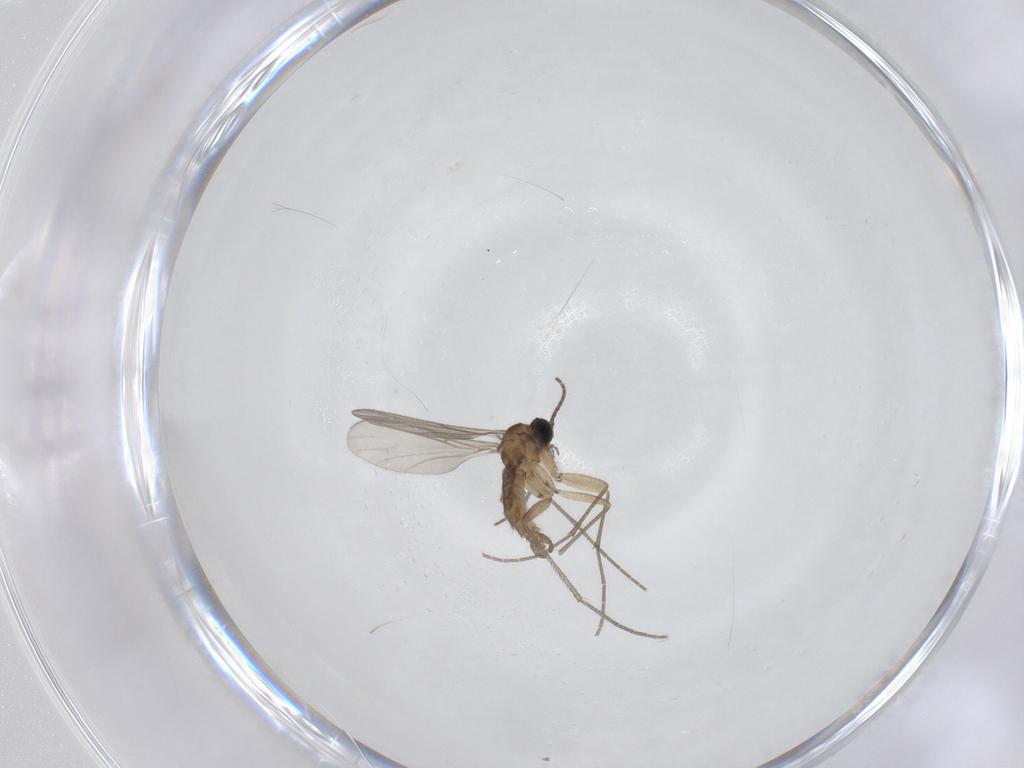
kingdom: Animalia
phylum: Arthropoda
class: Insecta
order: Diptera
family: Sciaridae
